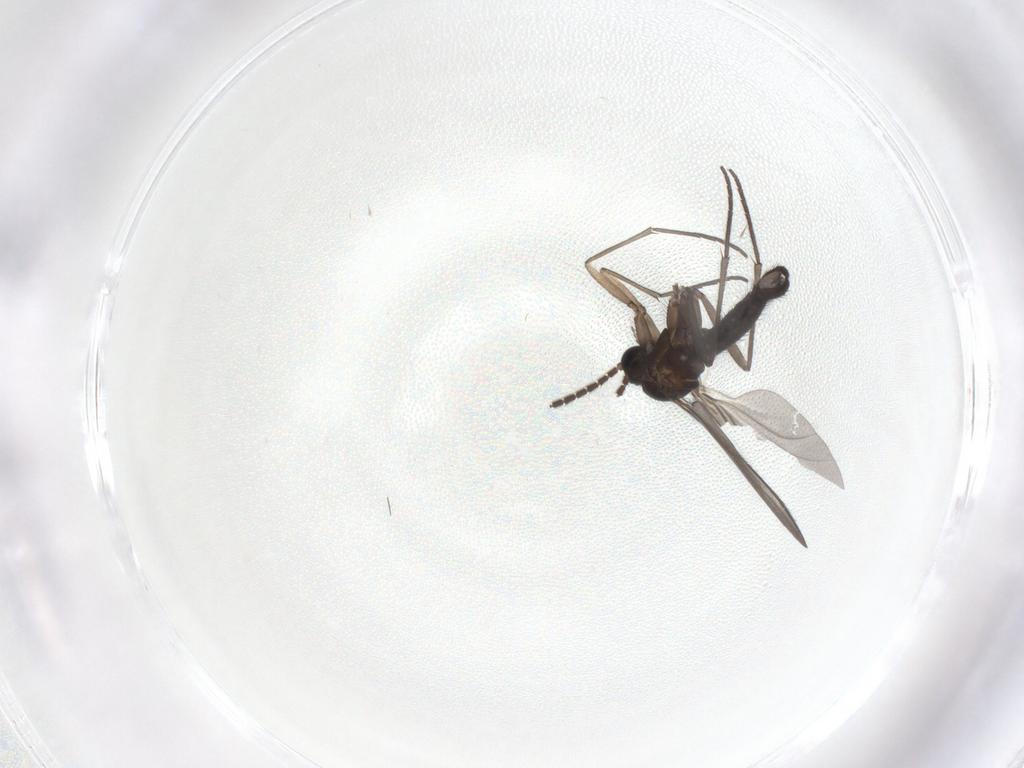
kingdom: Animalia
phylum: Arthropoda
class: Insecta
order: Diptera
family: Sciaridae
